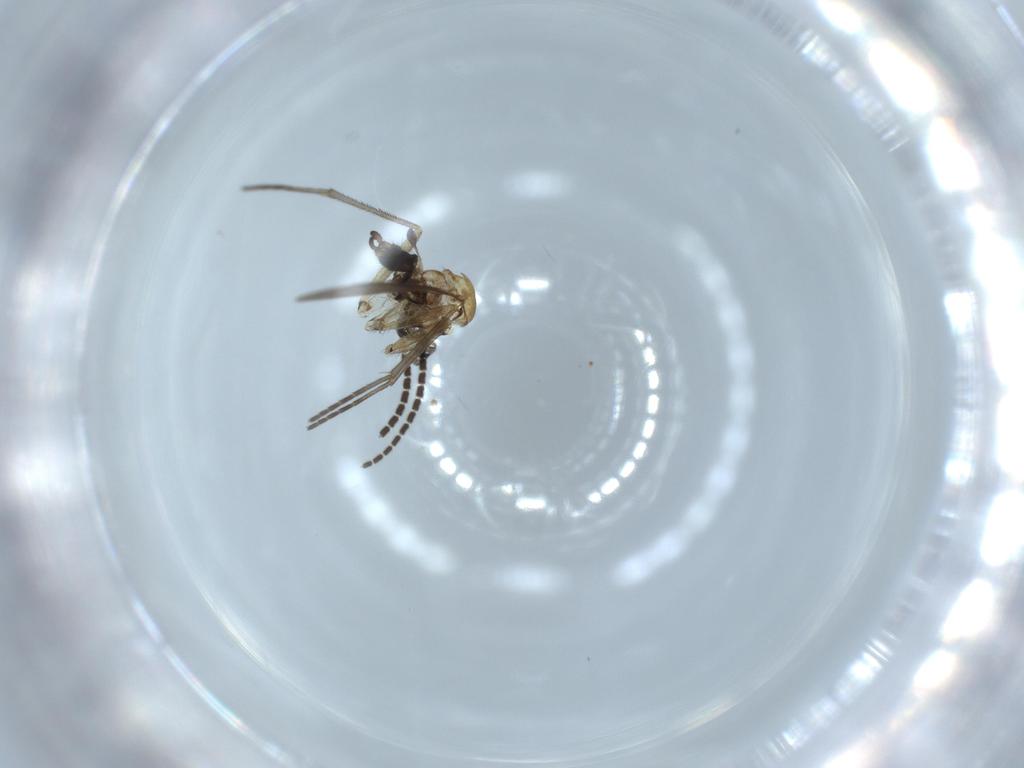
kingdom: Animalia
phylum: Arthropoda
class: Insecta
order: Diptera
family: Sciaridae
